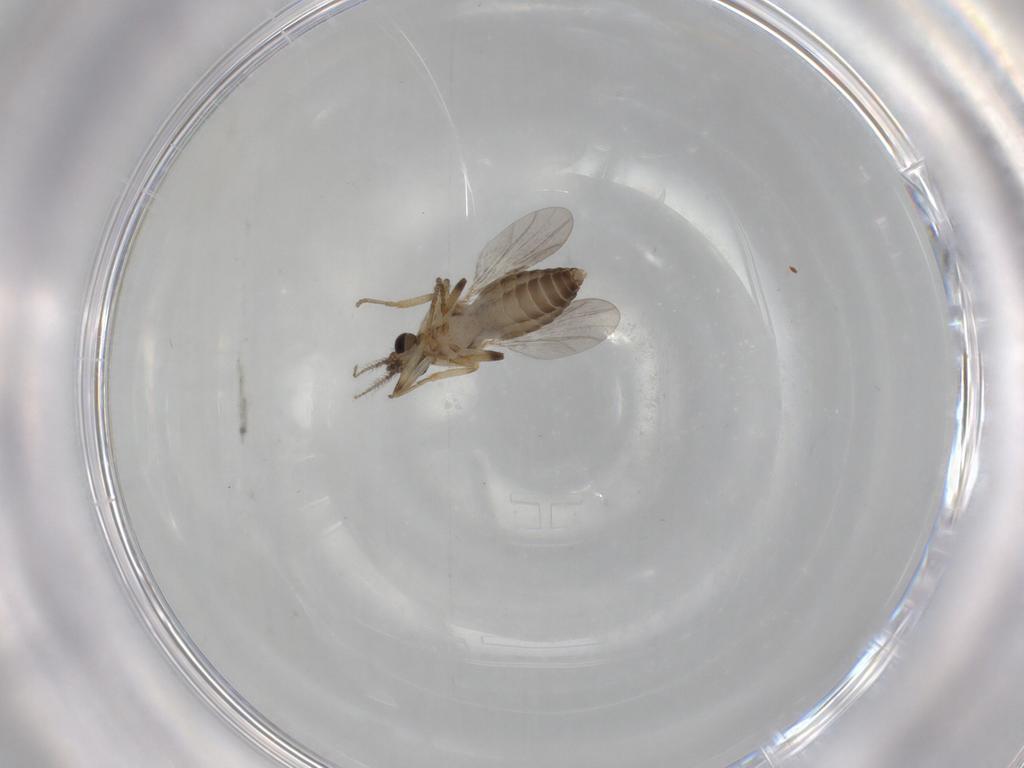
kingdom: Animalia
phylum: Arthropoda
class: Insecta
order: Diptera
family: Ceratopogonidae
